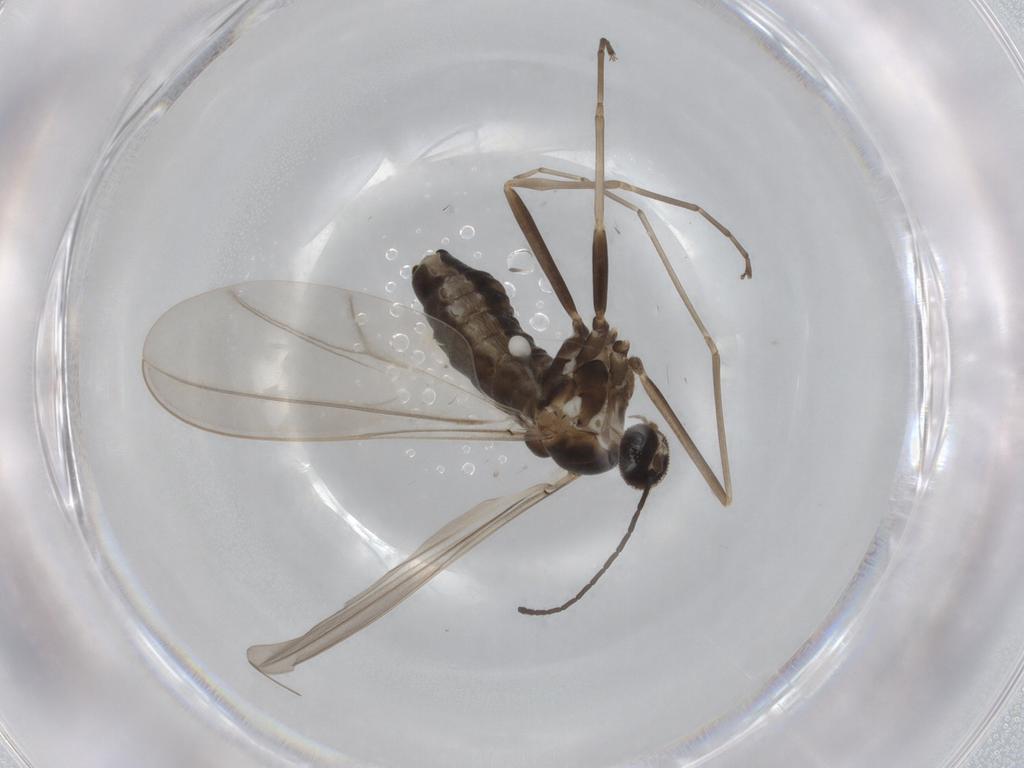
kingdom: Animalia
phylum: Arthropoda
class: Insecta
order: Diptera
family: Cecidomyiidae
